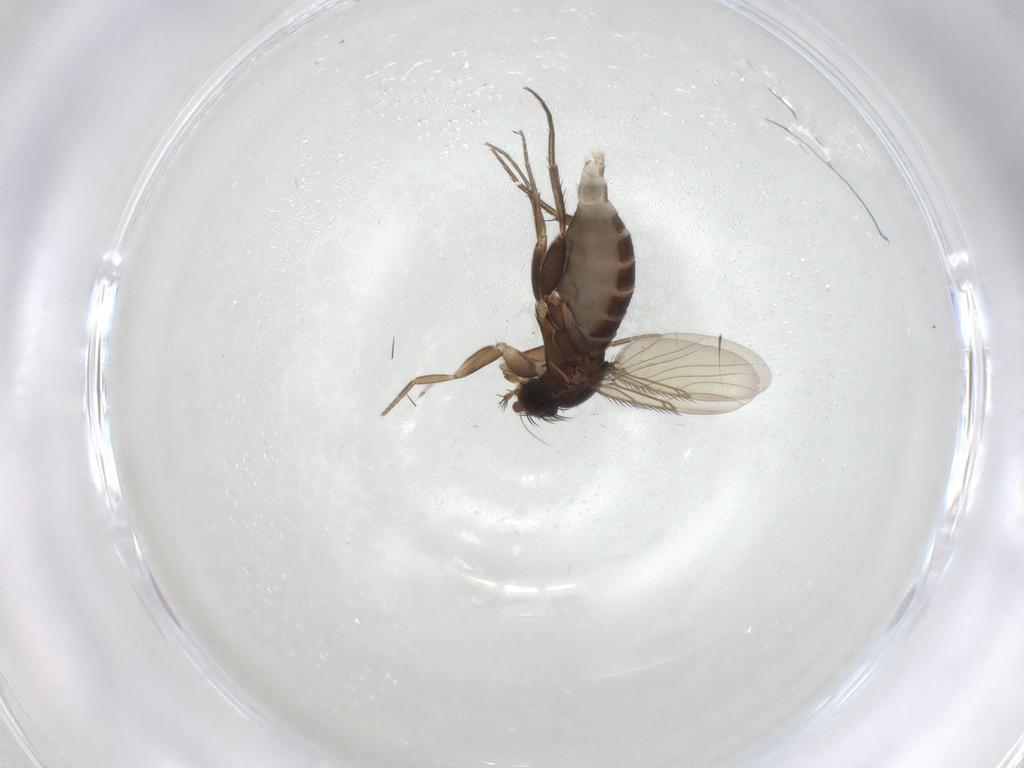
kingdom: Animalia
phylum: Arthropoda
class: Insecta
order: Diptera
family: Phoridae
